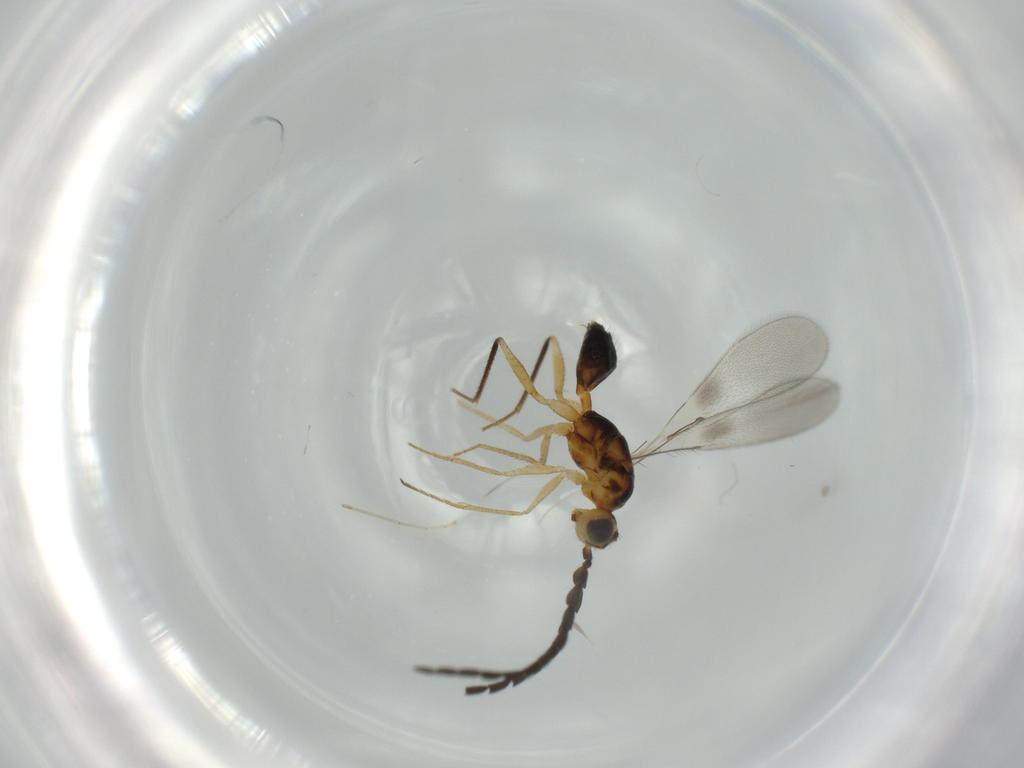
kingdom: Animalia
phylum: Arthropoda
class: Insecta
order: Hymenoptera
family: Mymaridae
